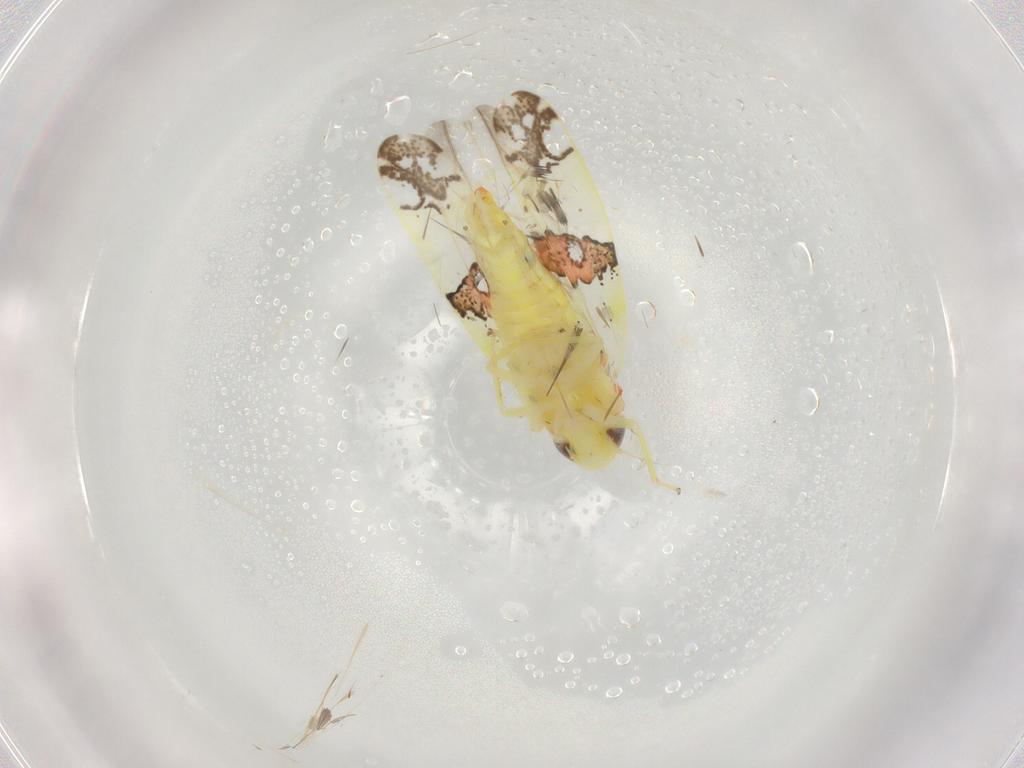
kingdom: Animalia
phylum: Arthropoda
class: Insecta
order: Hemiptera
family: Cicadellidae
